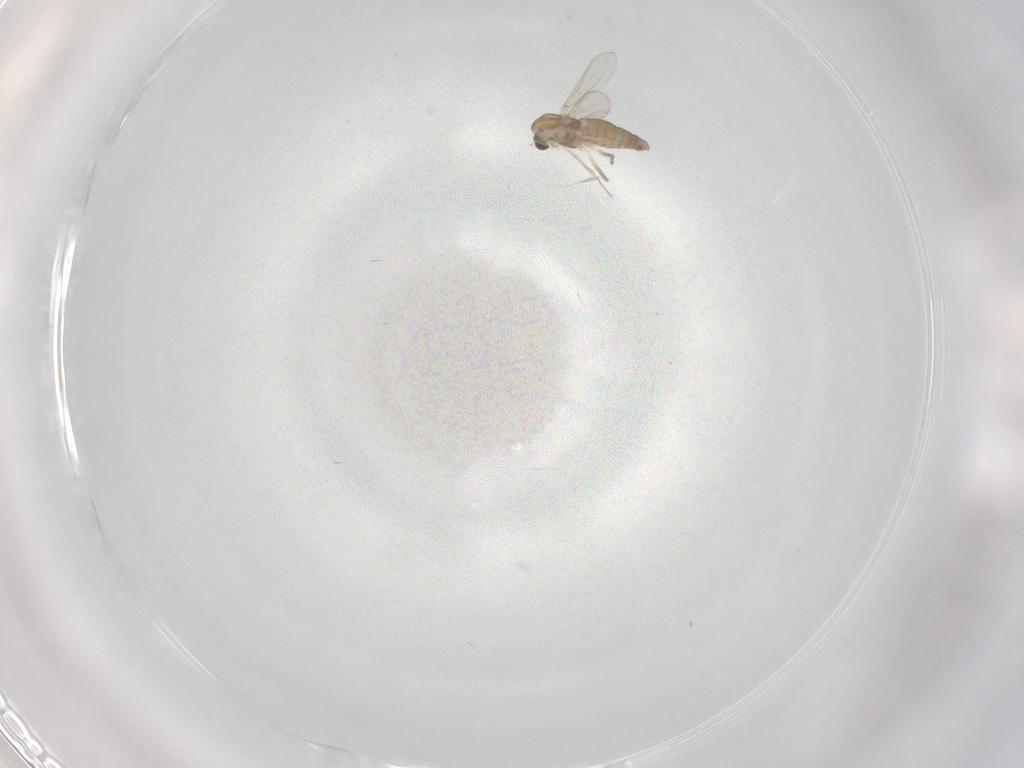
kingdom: Animalia
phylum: Arthropoda
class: Insecta
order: Diptera
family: Chironomidae
